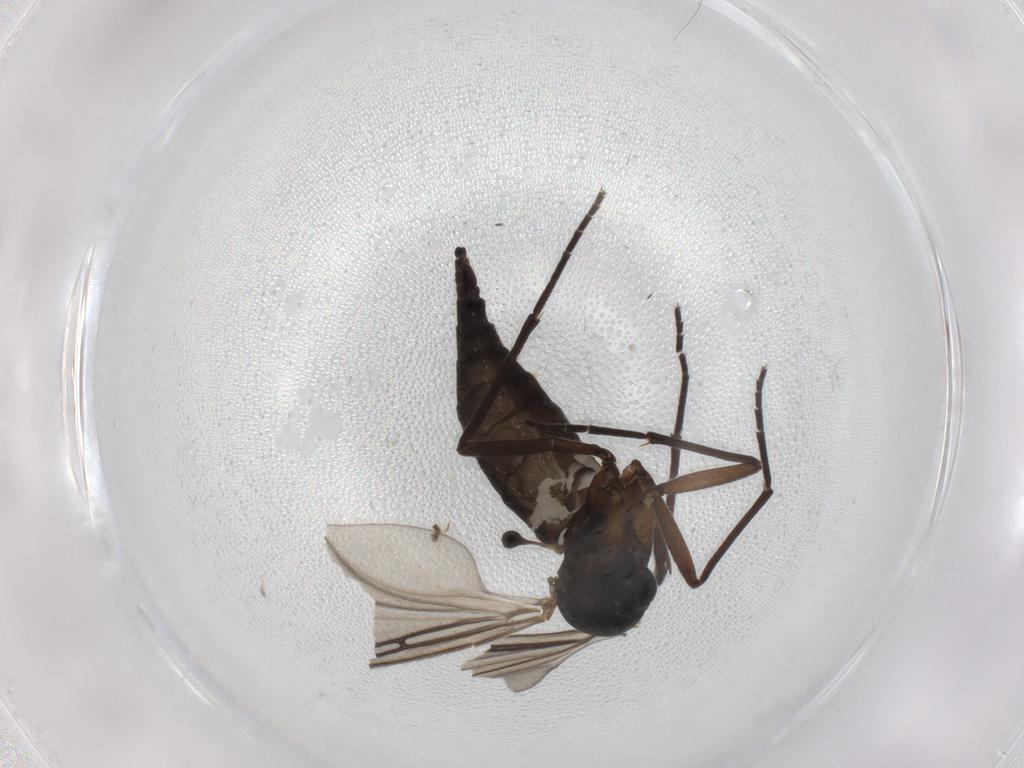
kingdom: Animalia
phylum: Arthropoda
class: Insecta
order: Diptera
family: Sciaridae
